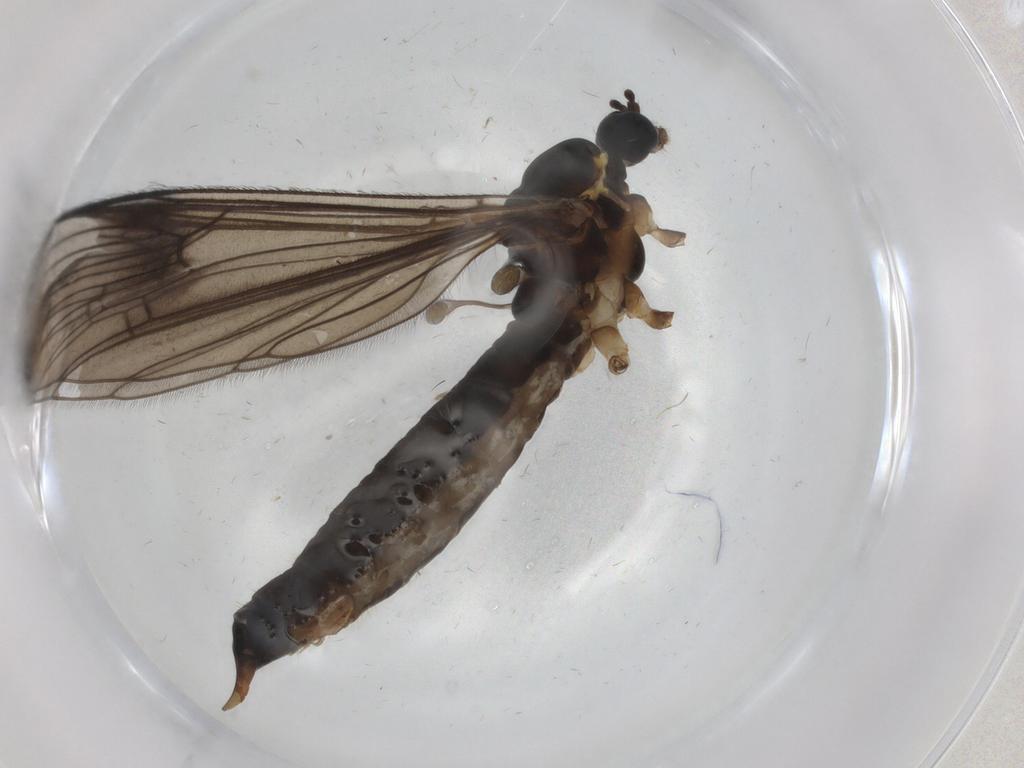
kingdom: Animalia
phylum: Arthropoda
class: Insecta
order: Diptera
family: Limoniidae
